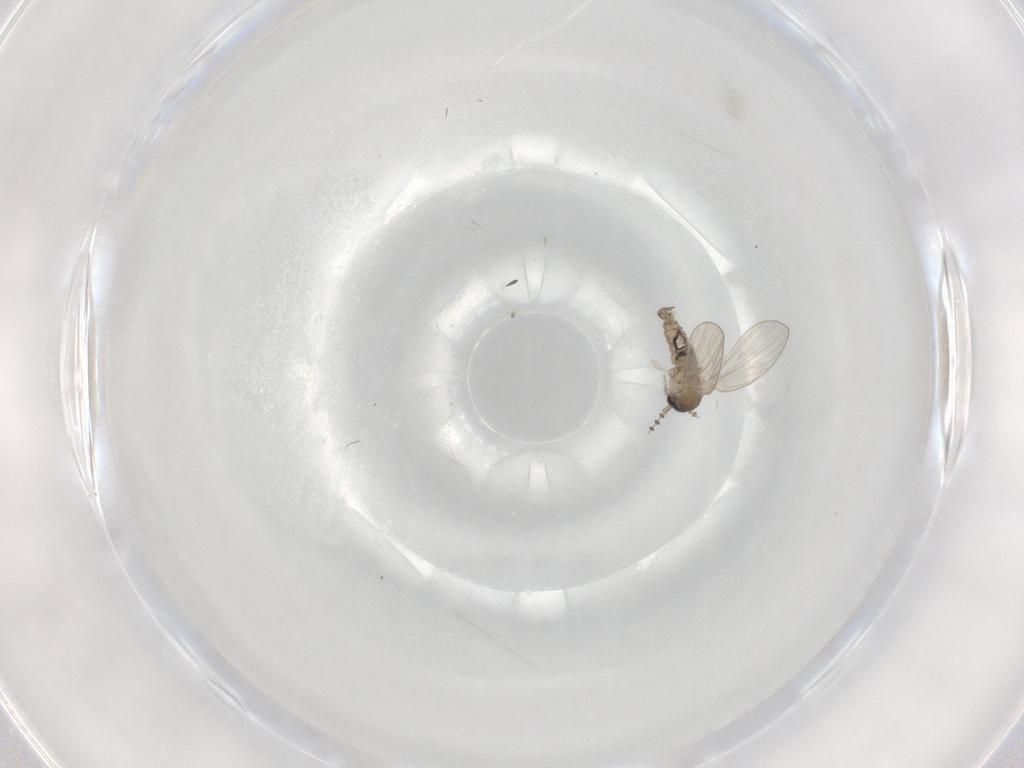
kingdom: Animalia
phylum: Arthropoda
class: Insecta
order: Diptera
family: Psychodidae
